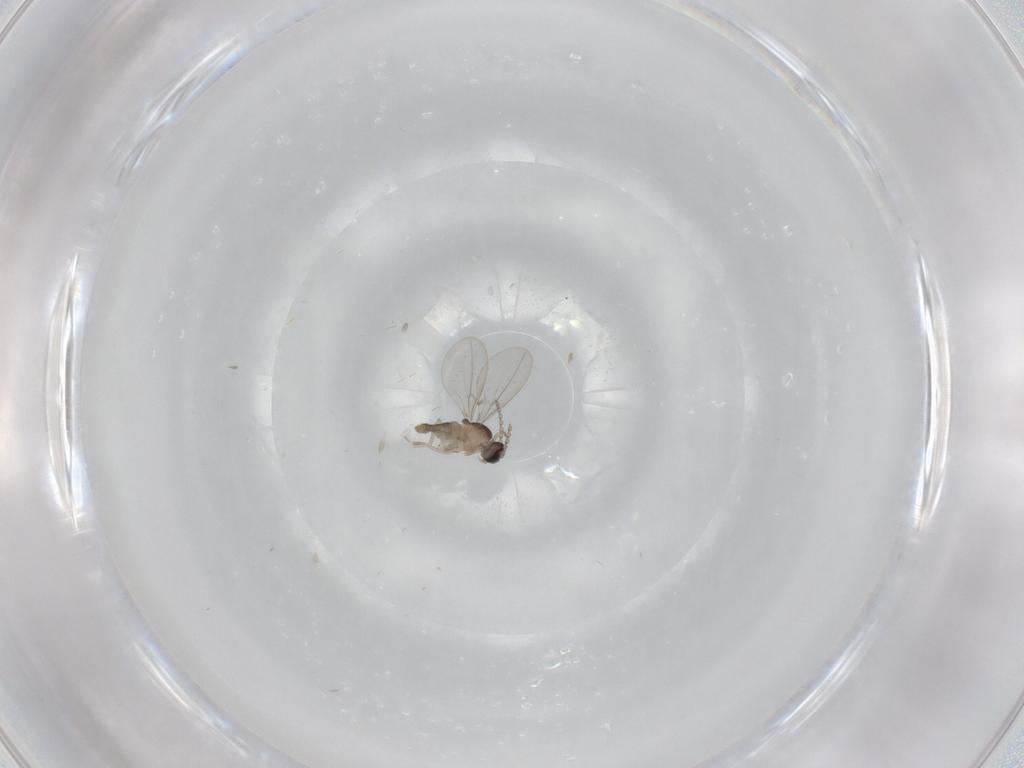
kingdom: Animalia
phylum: Arthropoda
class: Insecta
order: Diptera
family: Cecidomyiidae
